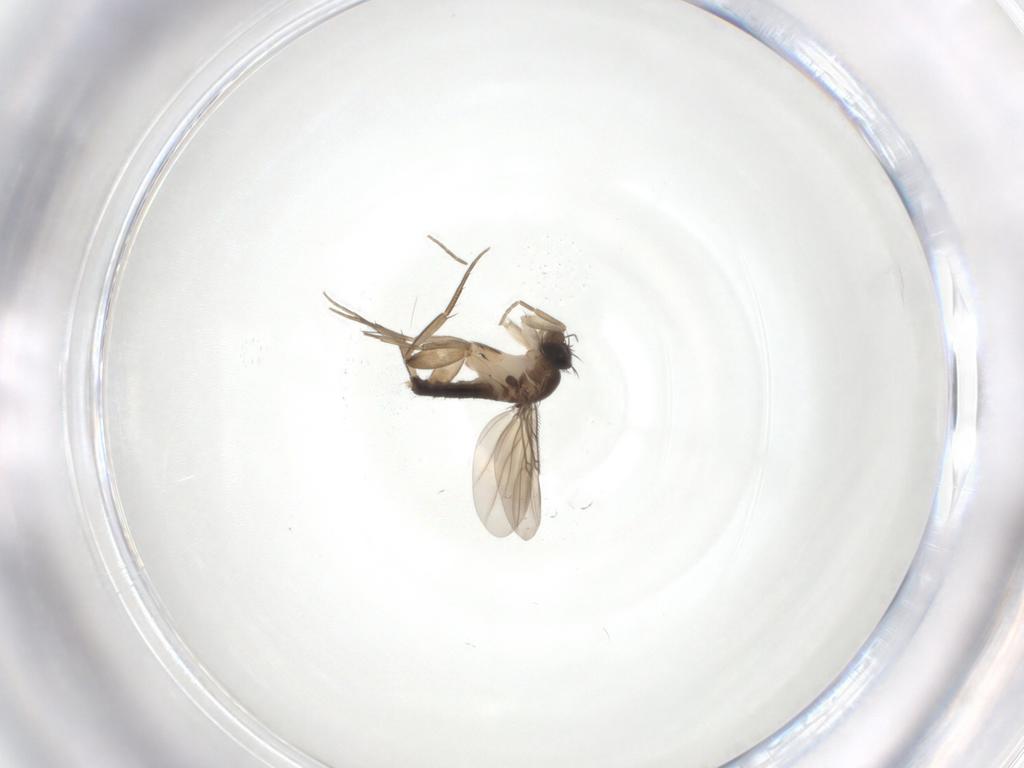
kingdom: Animalia
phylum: Arthropoda
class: Insecta
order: Diptera
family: Phoridae
